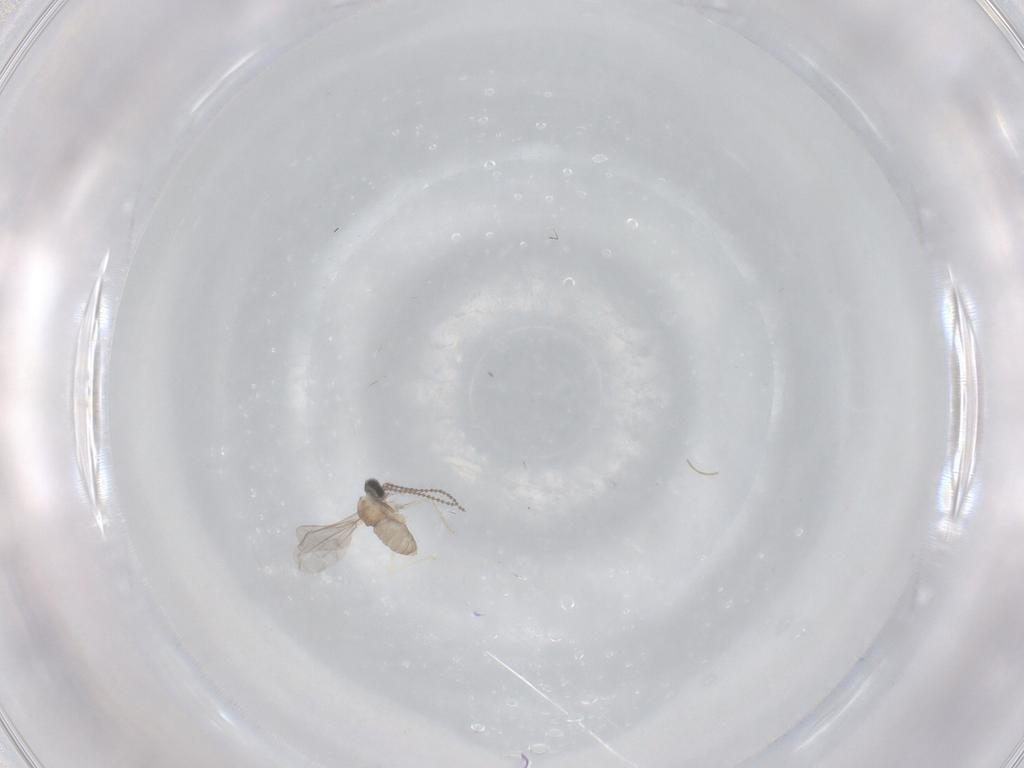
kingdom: Animalia
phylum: Arthropoda
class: Insecta
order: Diptera
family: Cecidomyiidae
